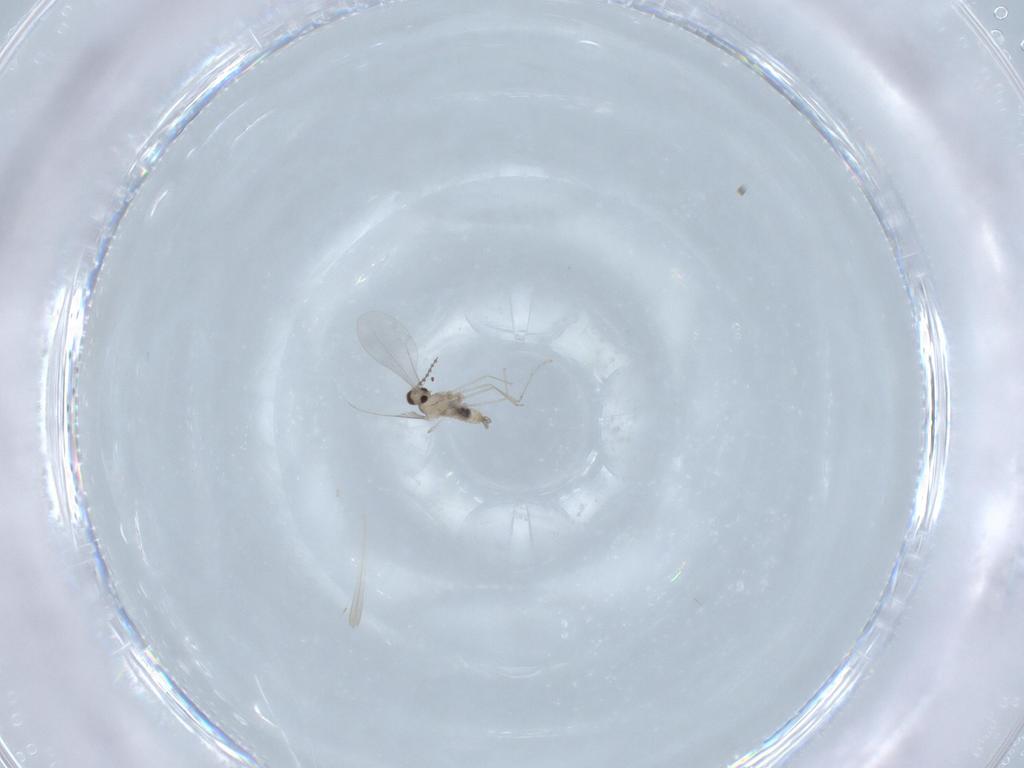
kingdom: Animalia
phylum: Arthropoda
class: Insecta
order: Diptera
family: Cecidomyiidae
